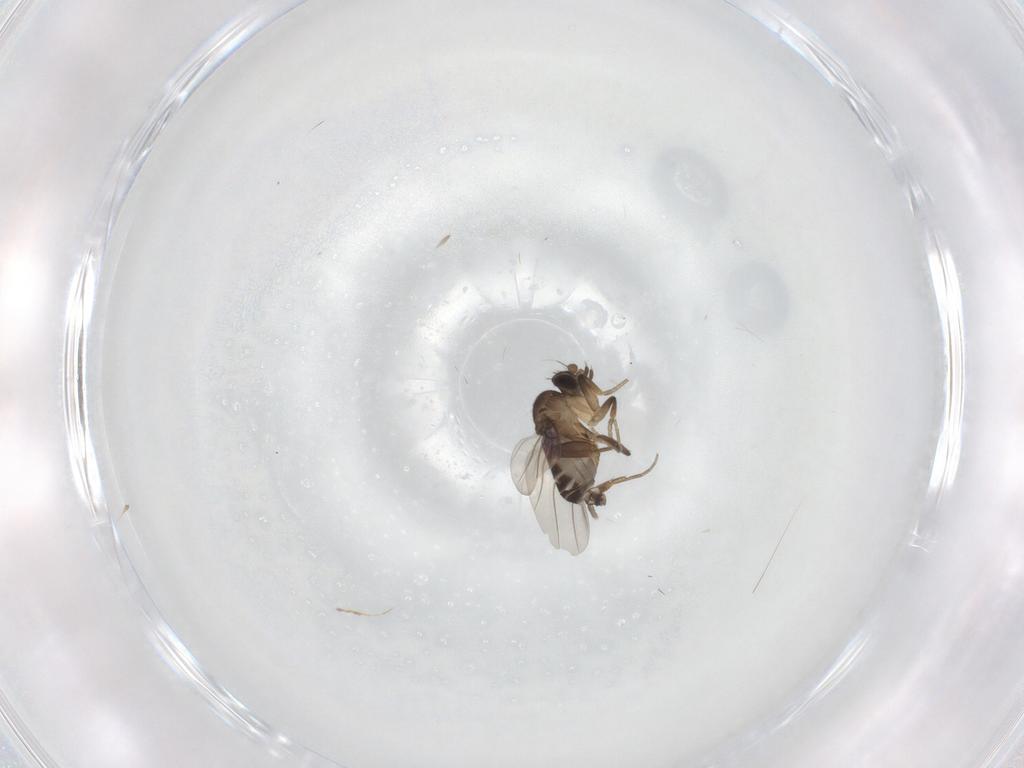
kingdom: Animalia
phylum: Arthropoda
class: Insecta
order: Diptera
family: Phoridae
